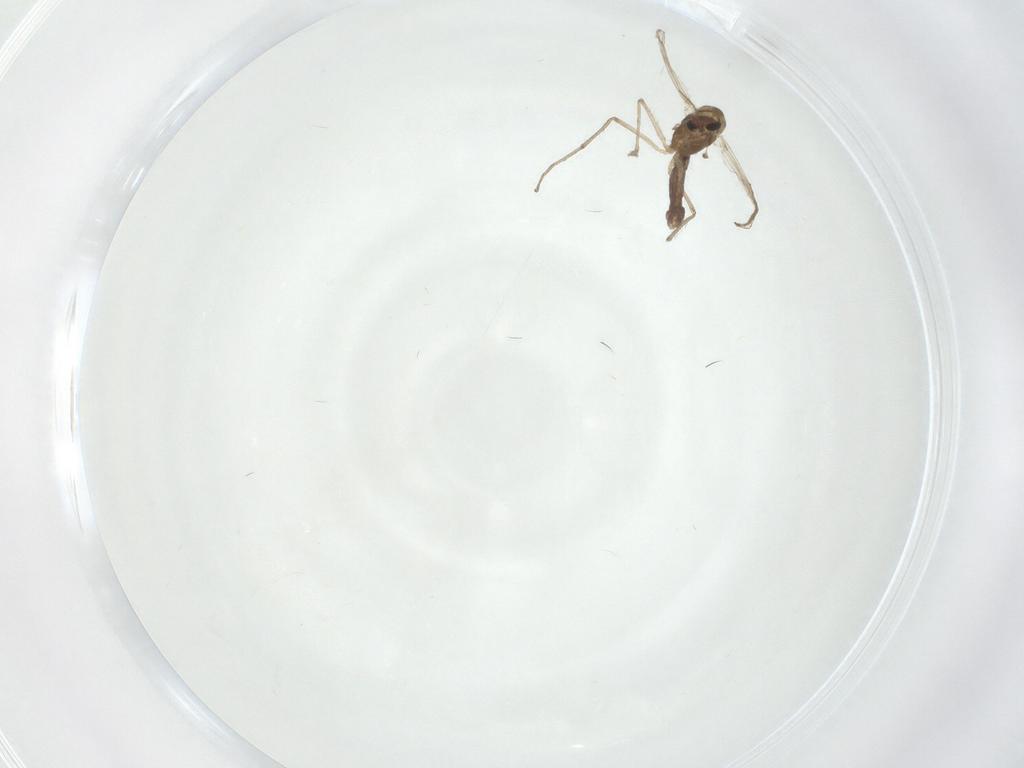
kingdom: Animalia
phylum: Arthropoda
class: Insecta
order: Diptera
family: Chironomidae
